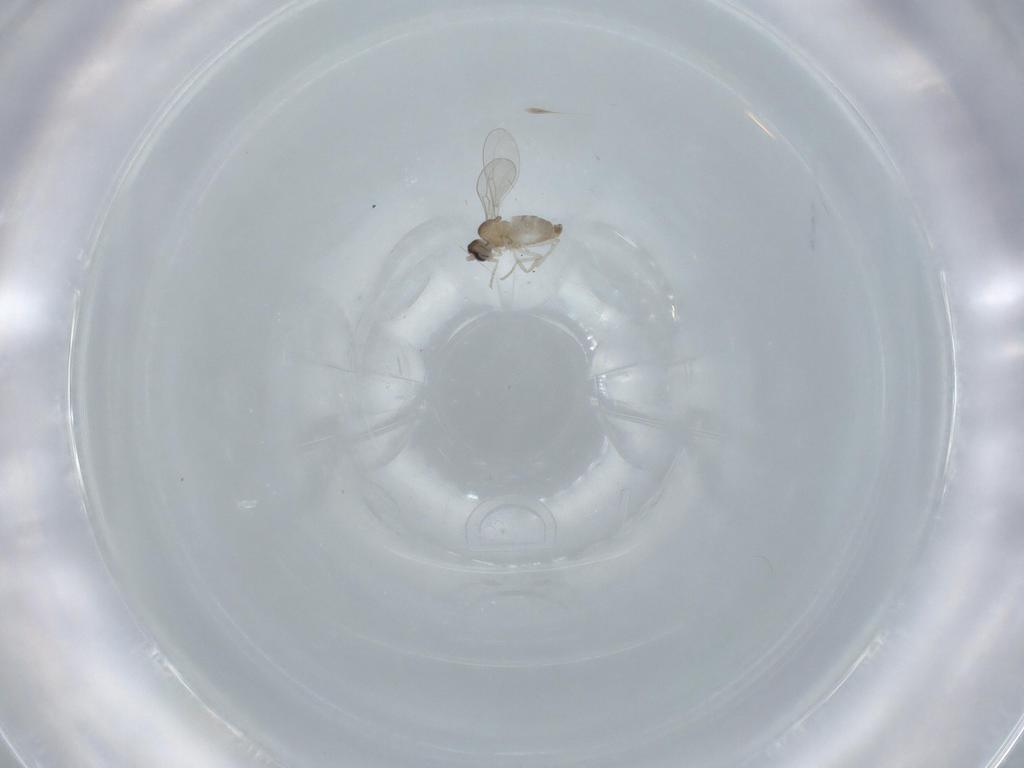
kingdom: Animalia
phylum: Arthropoda
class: Insecta
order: Diptera
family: Cecidomyiidae
